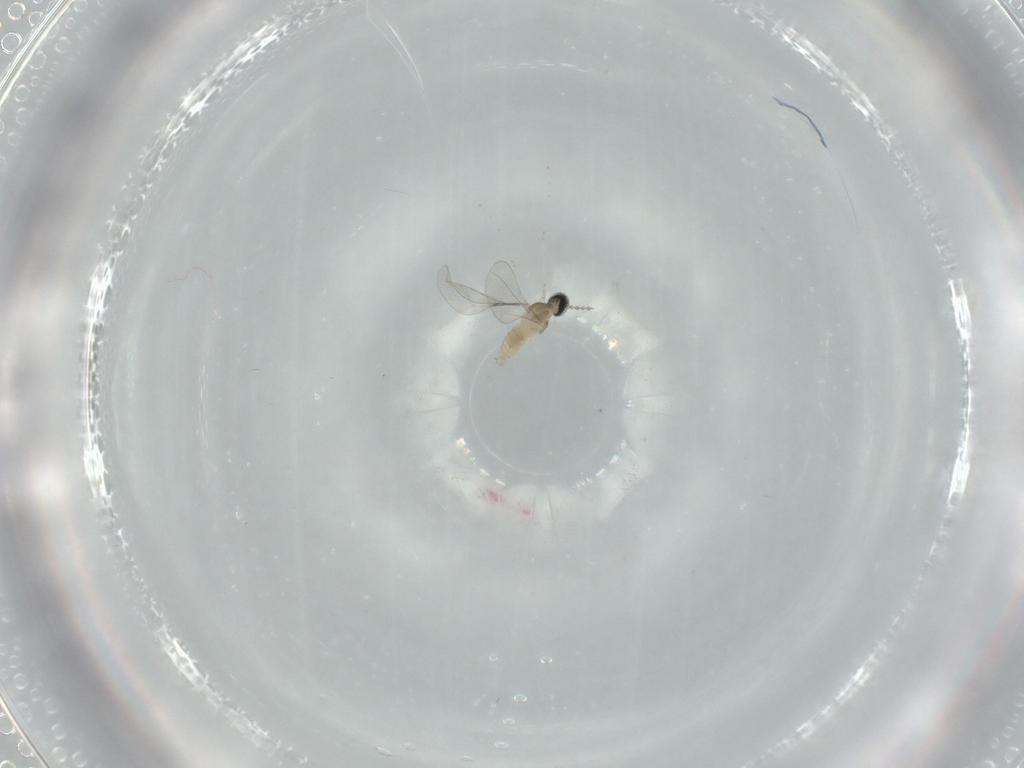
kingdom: Animalia
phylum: Arthropoda
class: Insecta
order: Diptera
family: Cecidomyiidae
